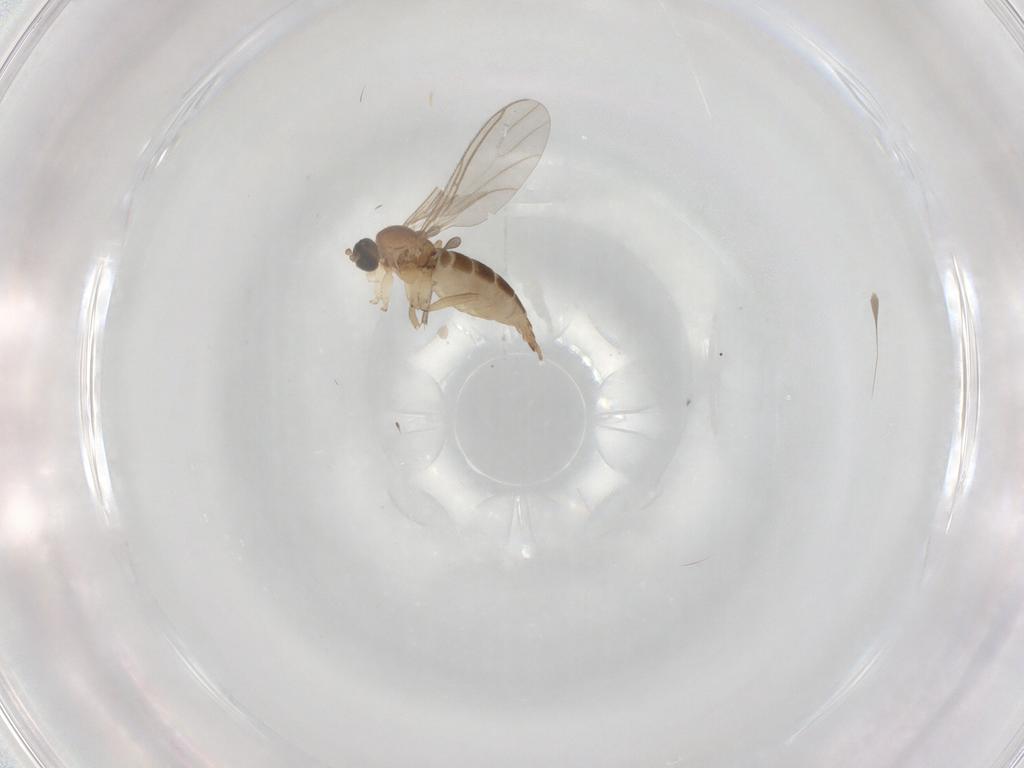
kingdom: Animalia
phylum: Arthropoda
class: Insecta
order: Diptera
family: Sciaridae
